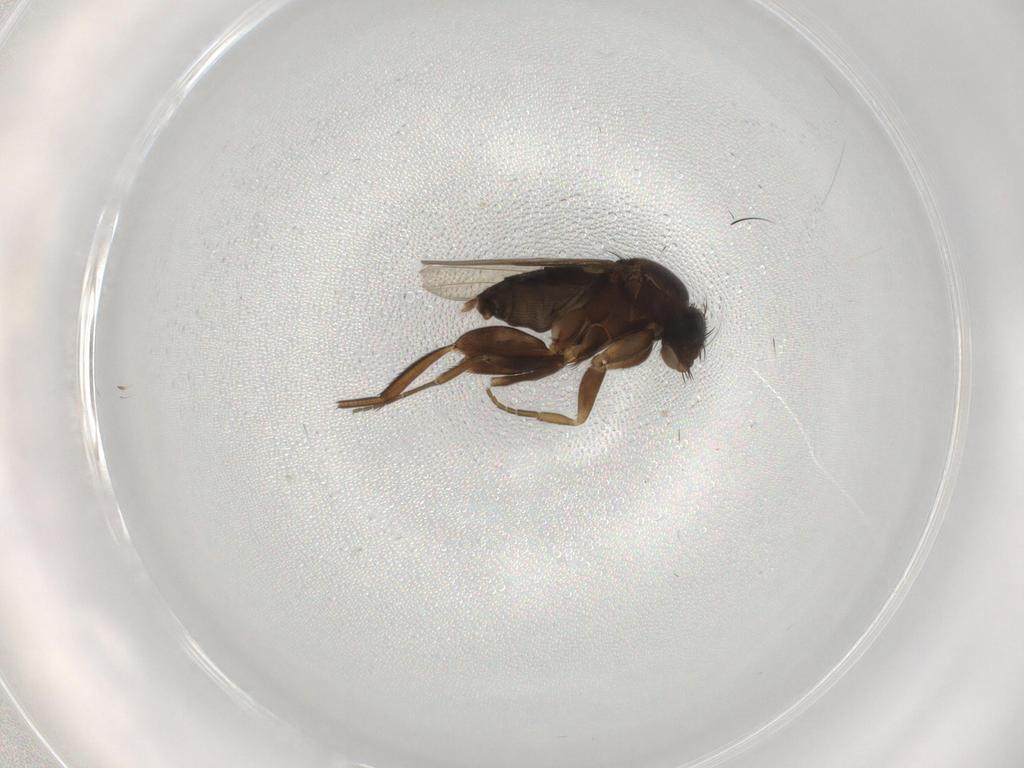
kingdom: Animalia
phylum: Arthropoda
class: Insecta
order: Diptera
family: Phoridae
